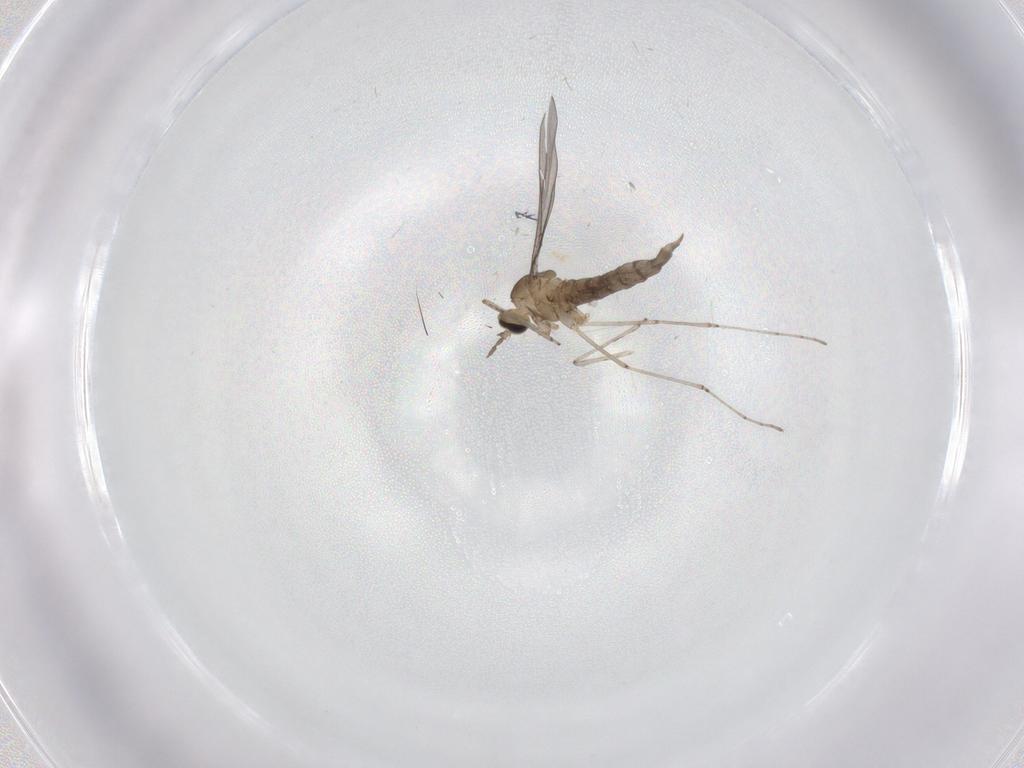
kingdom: Animalia
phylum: Arthropoda
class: Insecta
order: Diptera
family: Cecidomyiidae
